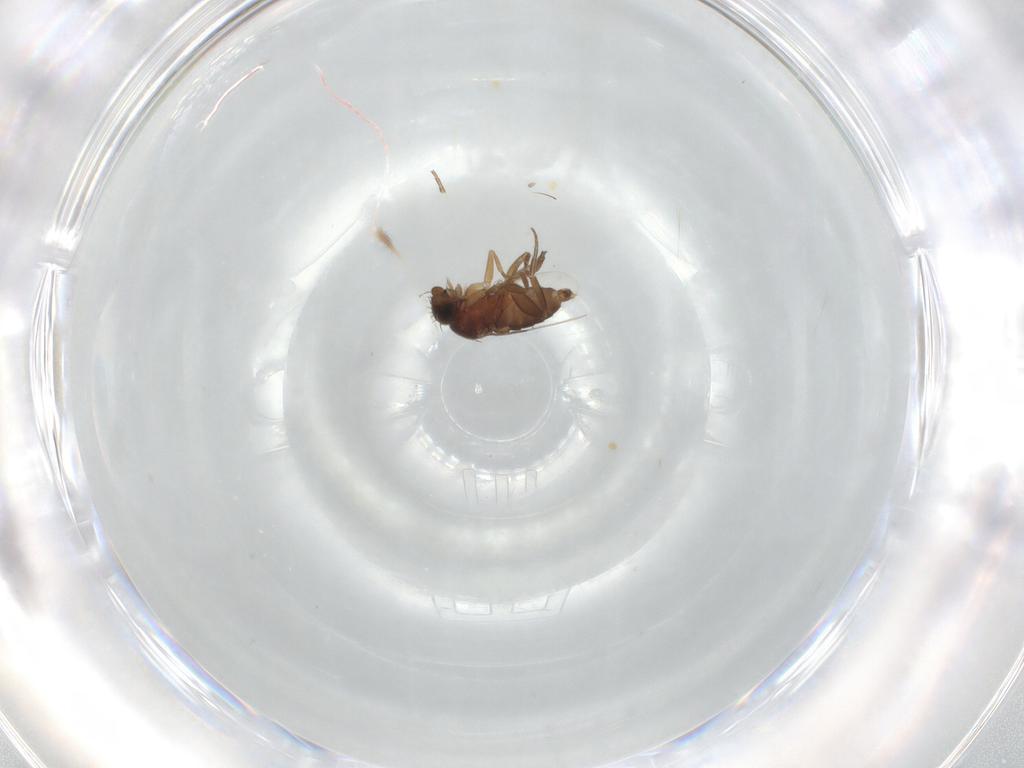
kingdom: Animalia
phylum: Arthropoda
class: Insecta
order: Diptera
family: Phoridae
